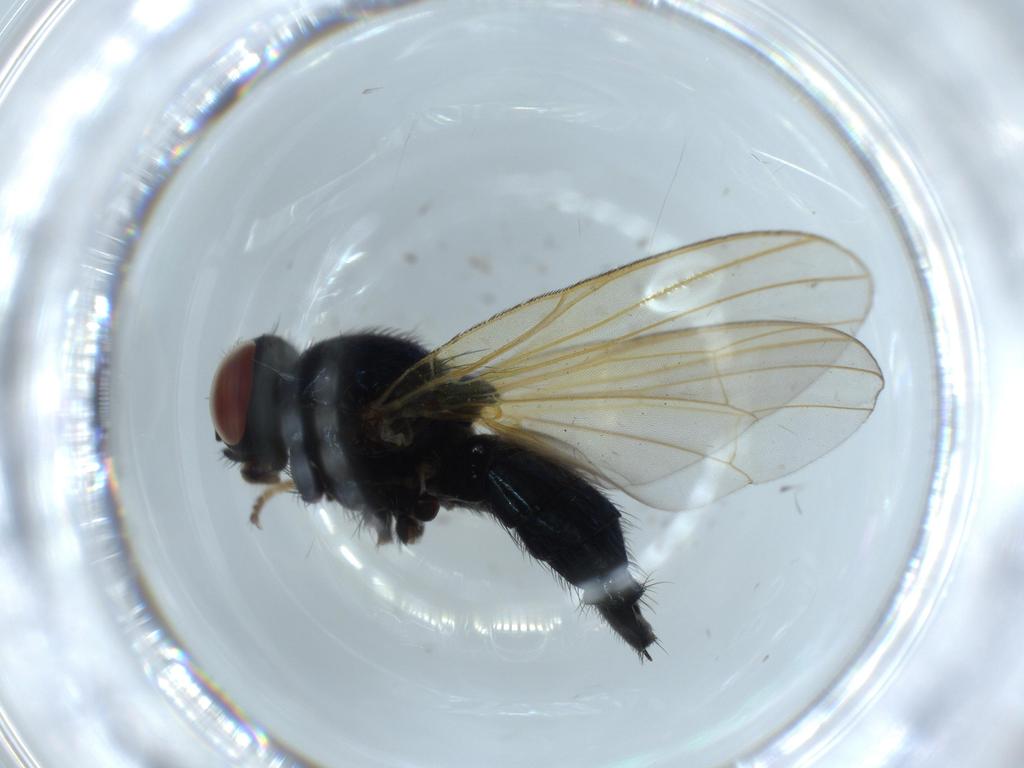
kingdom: Animalia
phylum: Arthropoda
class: Insecta
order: Diptera
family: Lonchaeidae
